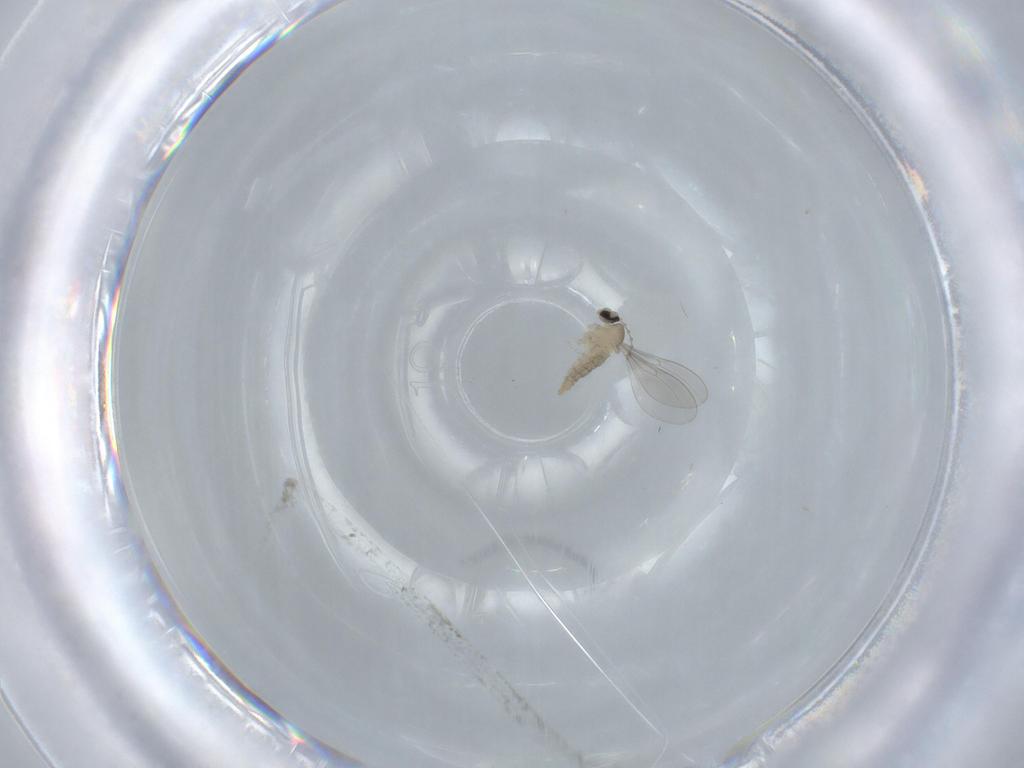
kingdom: Animalia
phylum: Arthropoda
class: Insecta
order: Diptera
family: Cecidomyiidae
